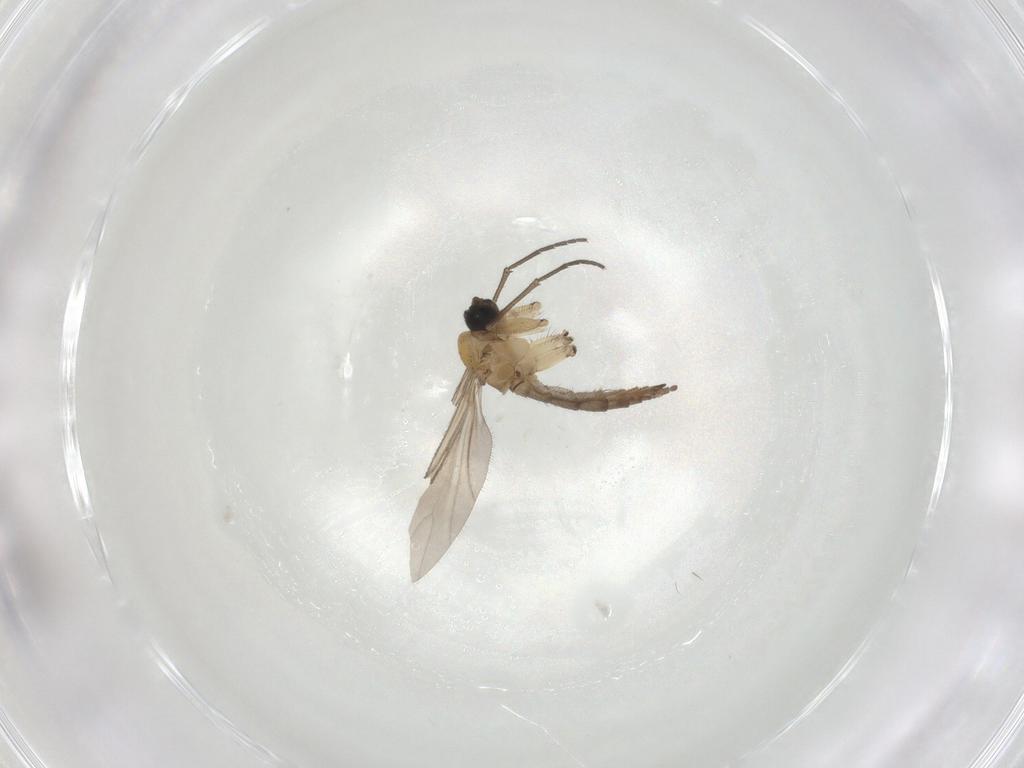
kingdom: Animalia
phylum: Arthropoda
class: Insecta
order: Diptera
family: Sciaridae
